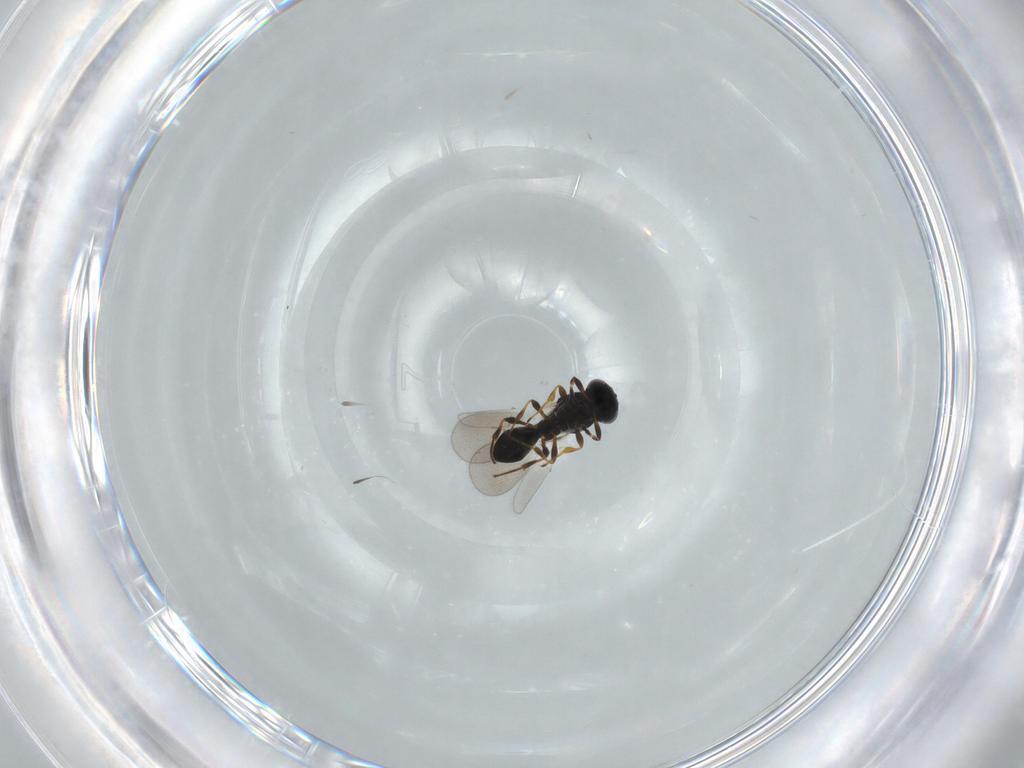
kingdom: Animalia
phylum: Arthropoda
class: Insecta
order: Hymenoptera
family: Platygastridae
